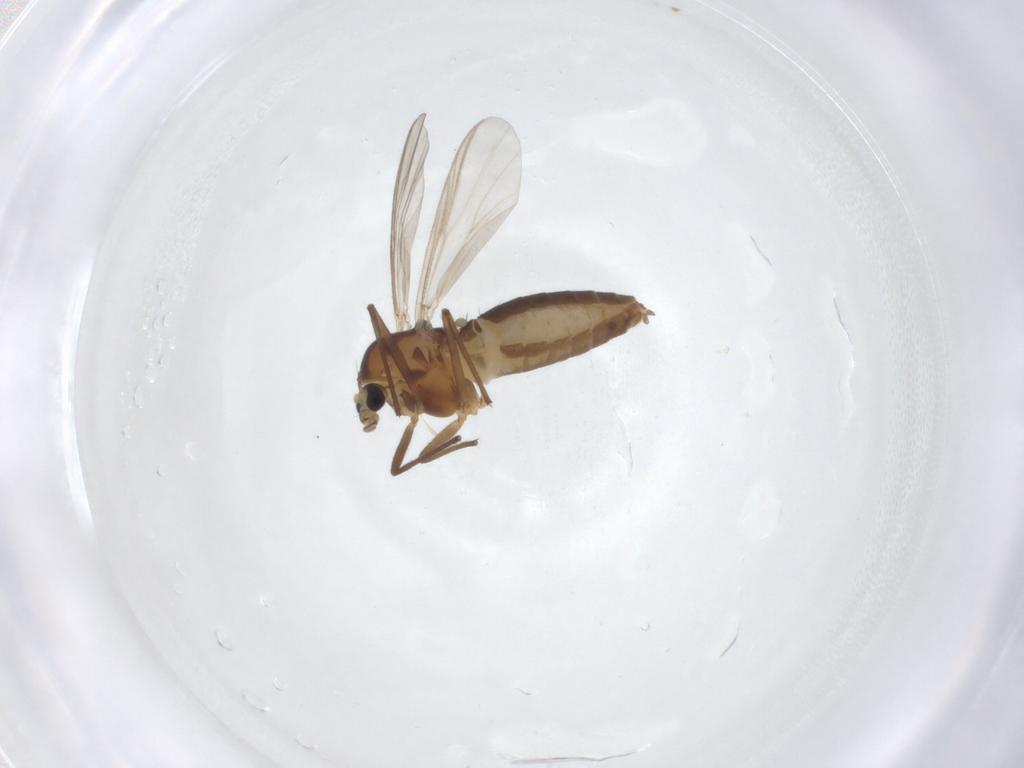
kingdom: Animalia
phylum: Arthropoda
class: Insecta
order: Diptera
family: Chironomidae
